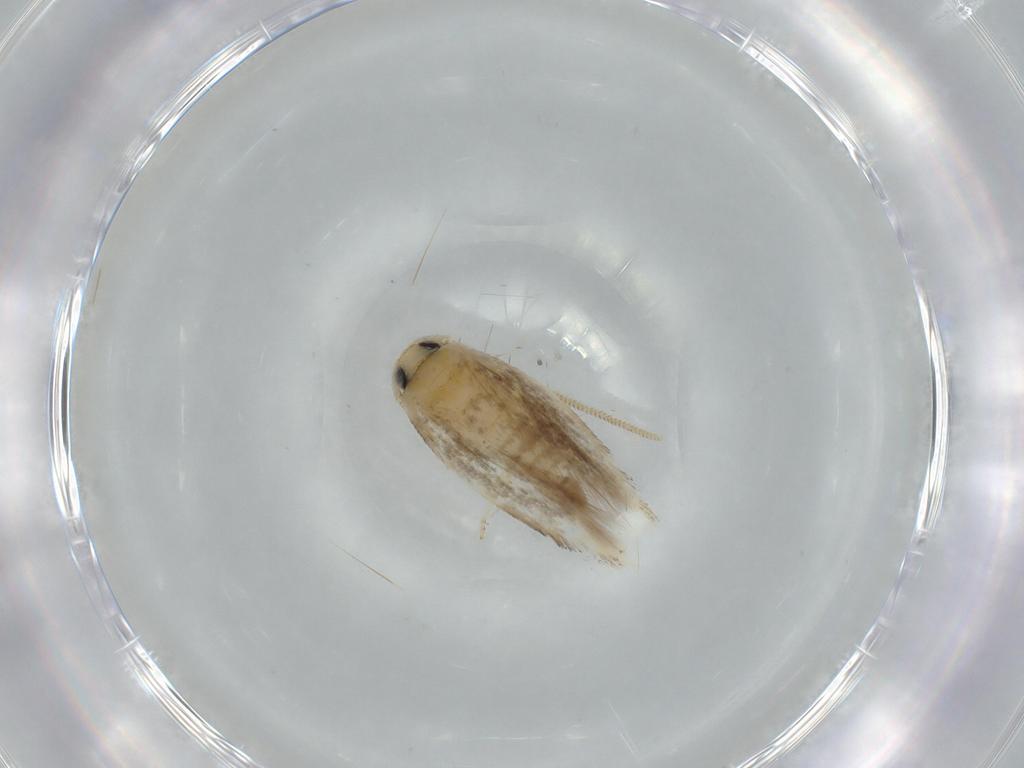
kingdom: Animalia
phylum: Arthropoda
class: Insecta
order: Lepidoptera
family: Opostegidae
